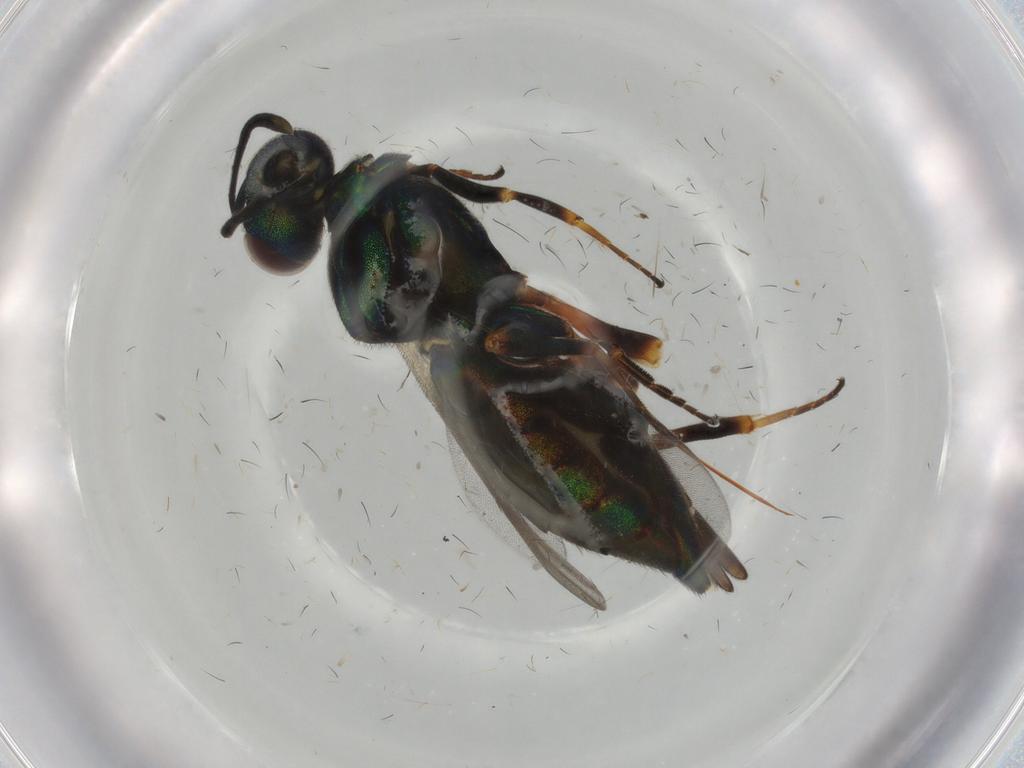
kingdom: Animalia
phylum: Arthropoda
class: Insecta
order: Hymenoptera
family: Eupelmidae
